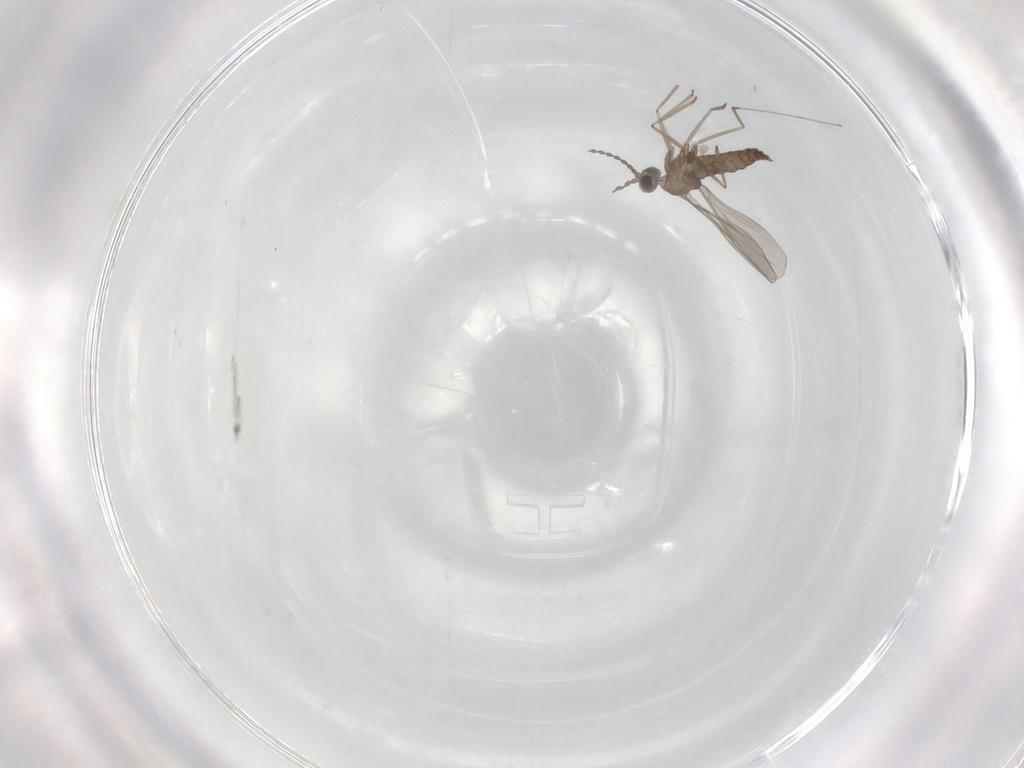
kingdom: Animalia
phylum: Arthropoda
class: Insecta
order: Diptera
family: Cecidomyiidae
